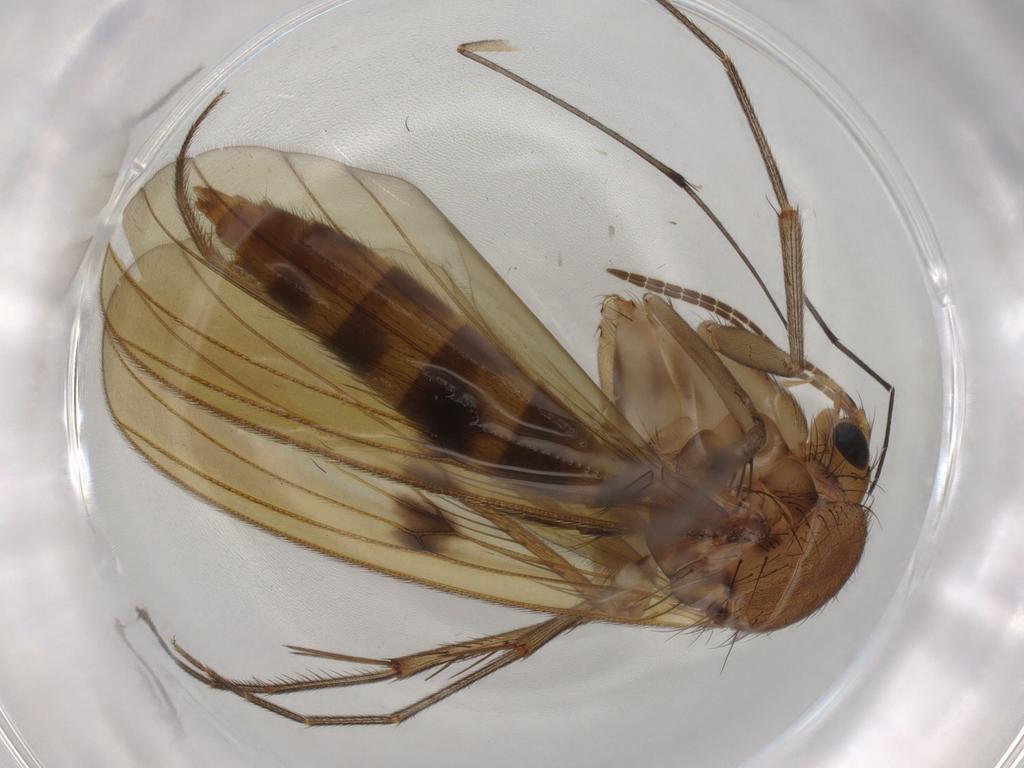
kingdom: Animalia
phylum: Arthropoda
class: Insecta
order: Diptera
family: Mycetophilidae
